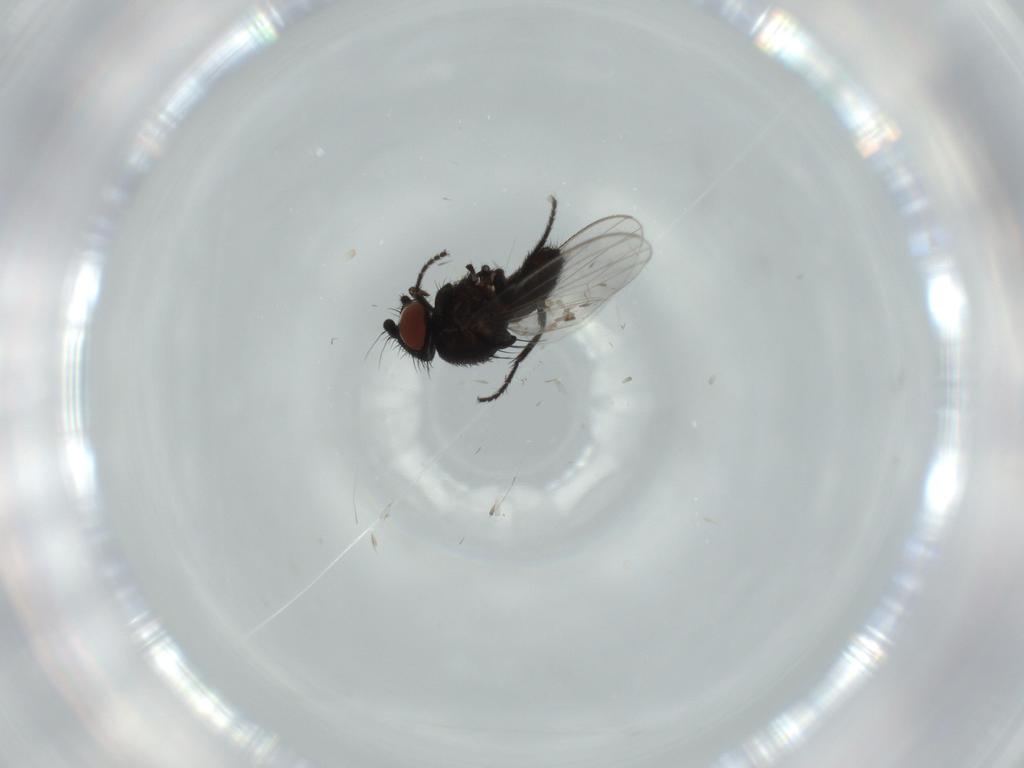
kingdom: Animalia
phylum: Arthropoda
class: Insecta
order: Diptera
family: Milichiidae
